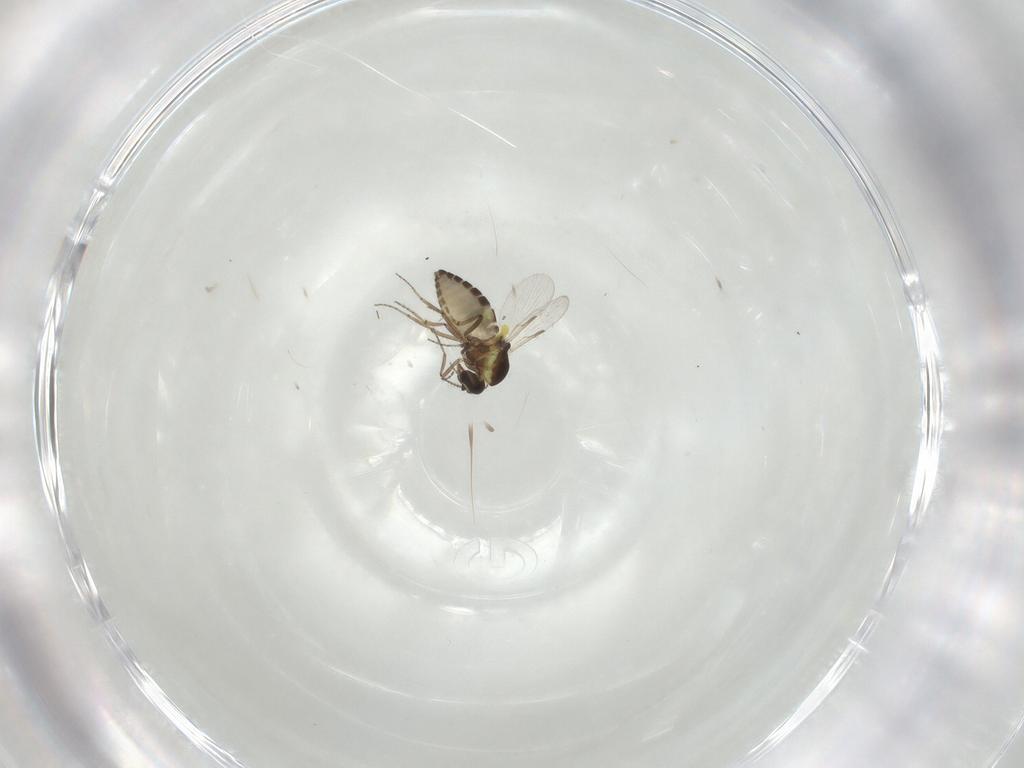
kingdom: Animalia
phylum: Arthropoda
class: Insecta
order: Diptera
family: Ceratopogonidae
